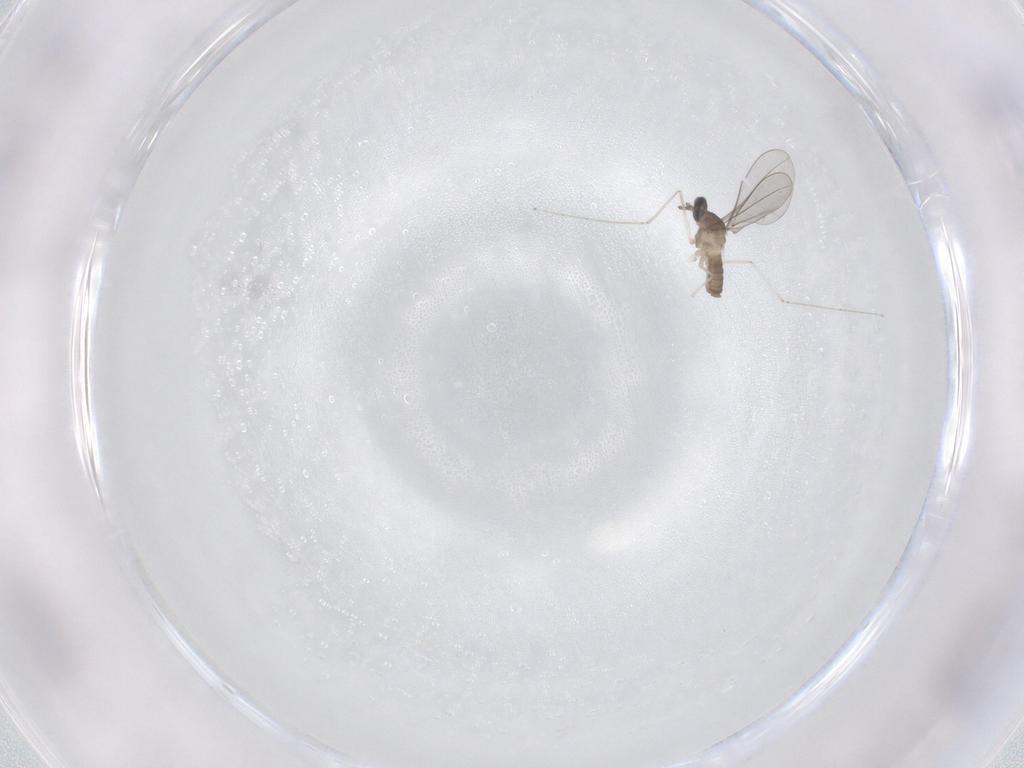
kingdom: Animalia
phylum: Arthropoda
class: Insecta
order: Diptera
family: Cecidomyiidae
